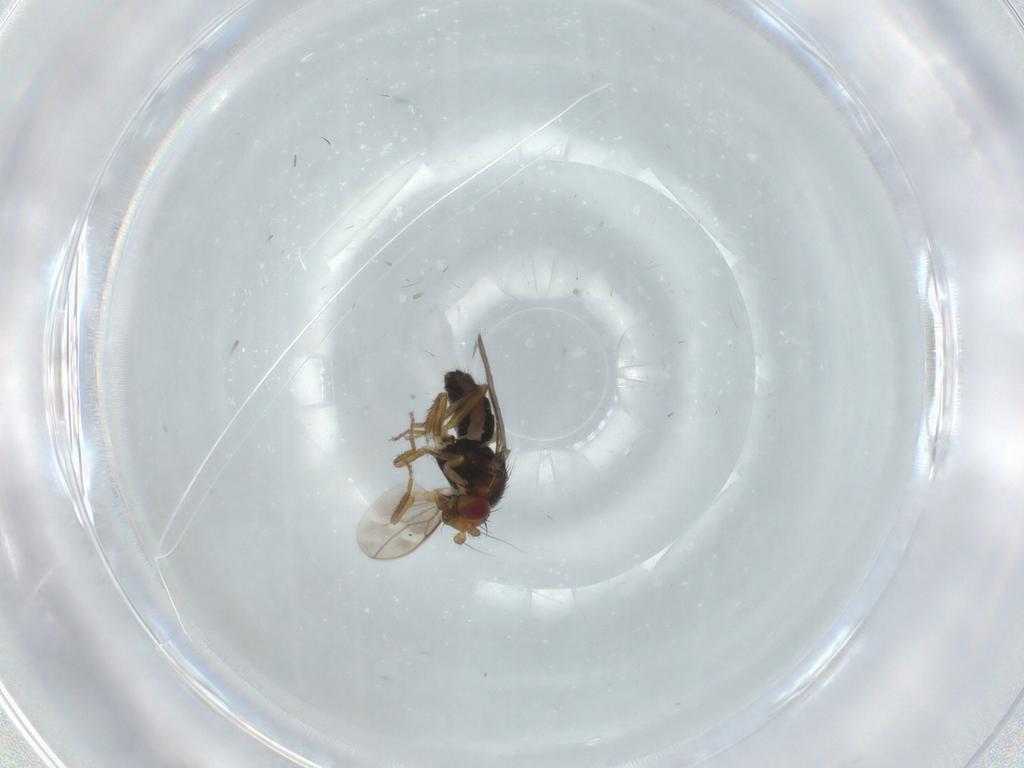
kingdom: Animalia
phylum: Arthropoda
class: Insecta
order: Diptera
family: Sphaeroceridae
